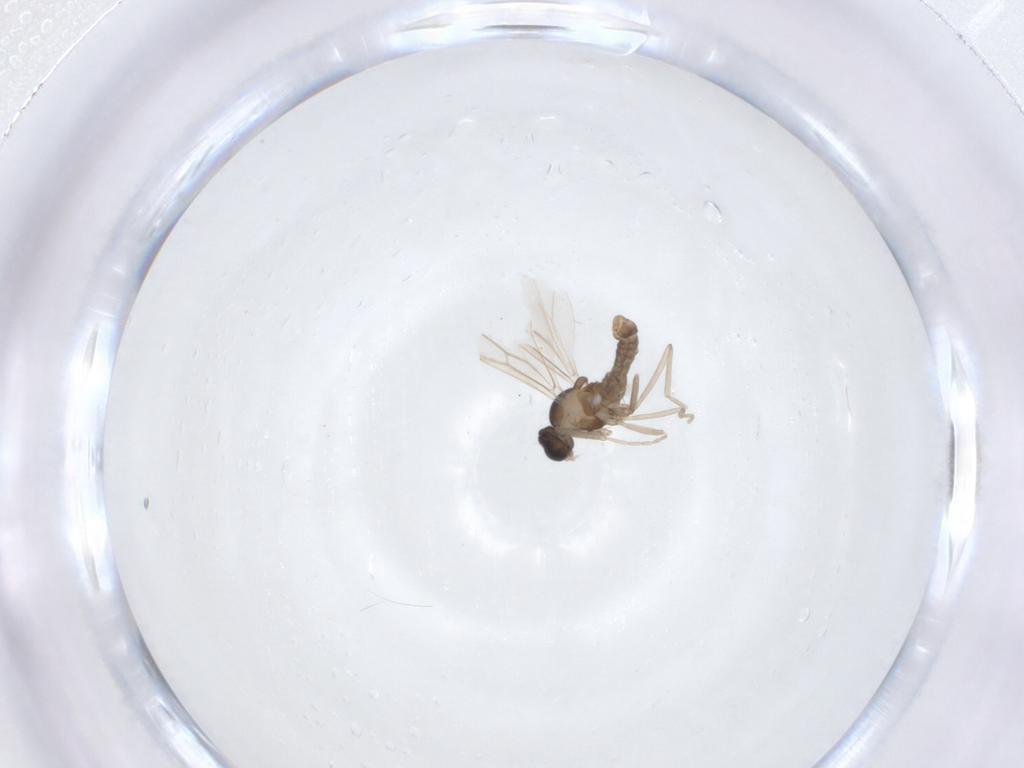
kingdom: Animalia
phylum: Arthropoda
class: Insecta
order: Diptera
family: Cecidomyiidae
